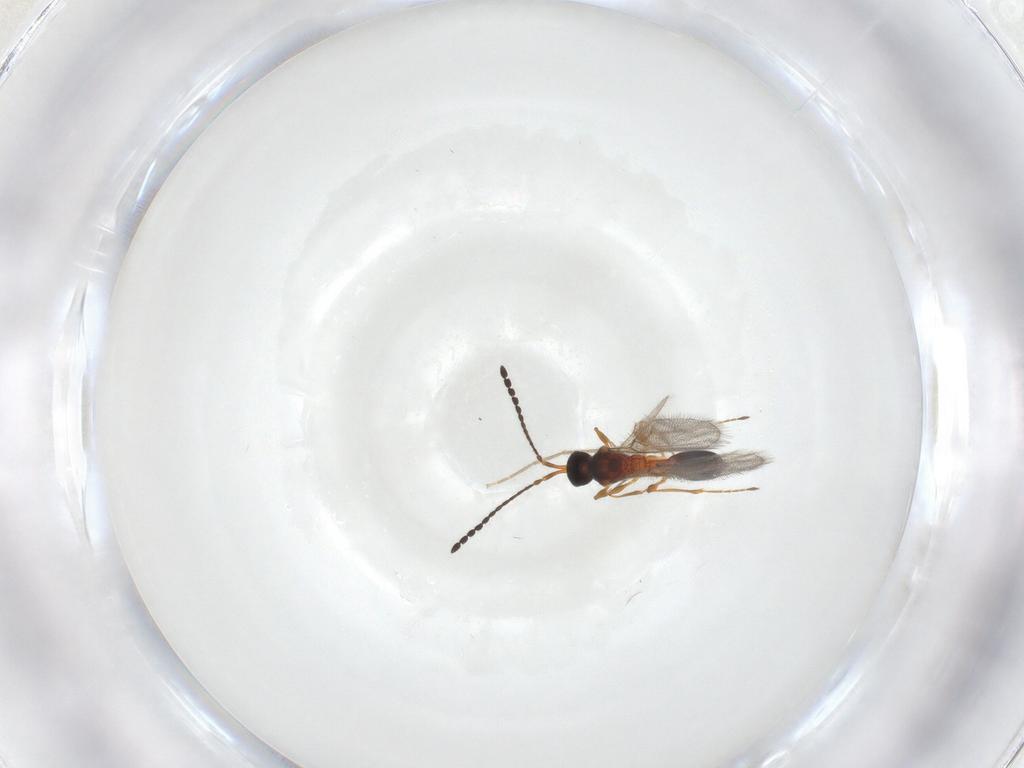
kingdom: Animalia
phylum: Arthropoda
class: Insecta
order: Hymenoptera
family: Diapriidae
